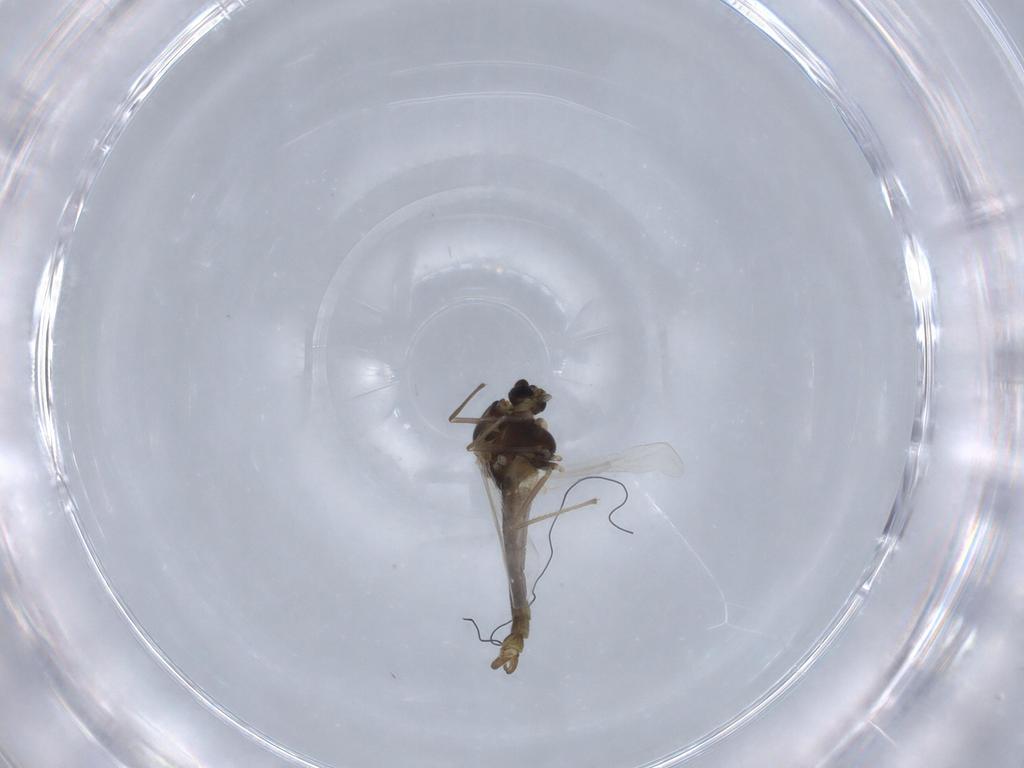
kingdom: Animalia
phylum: Arthropoda
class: Insecta
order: Diptera
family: Chironomidae
